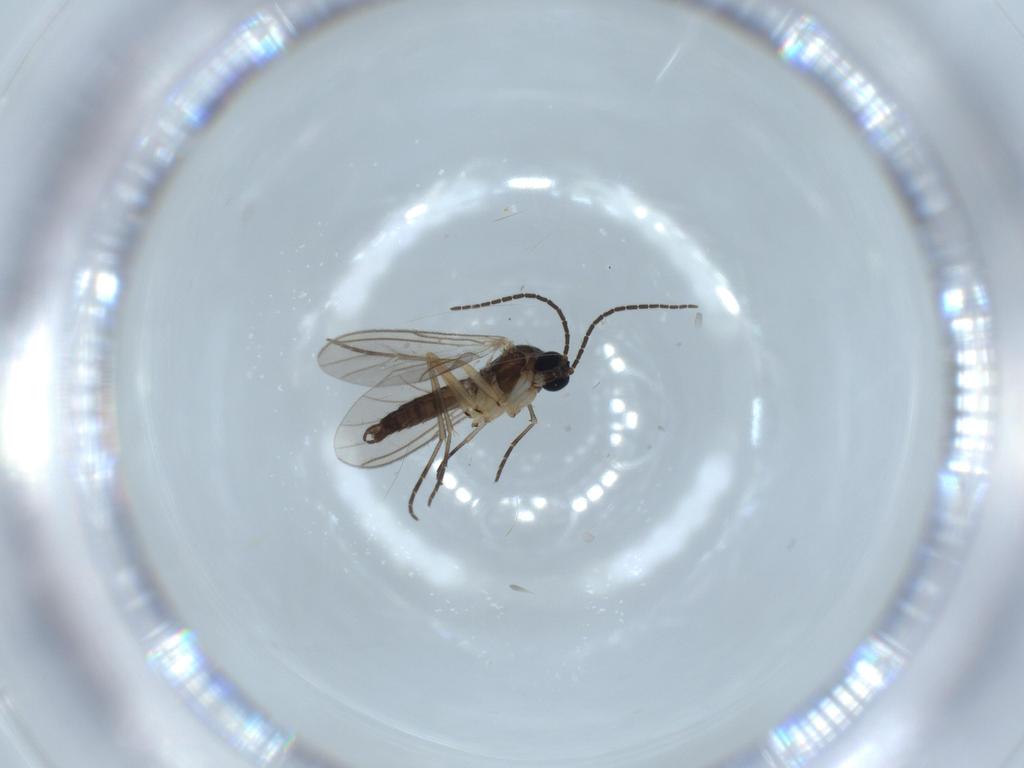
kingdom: Animalia
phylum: Arthropoda
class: Insecta
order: Diptera
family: Sciaridae
